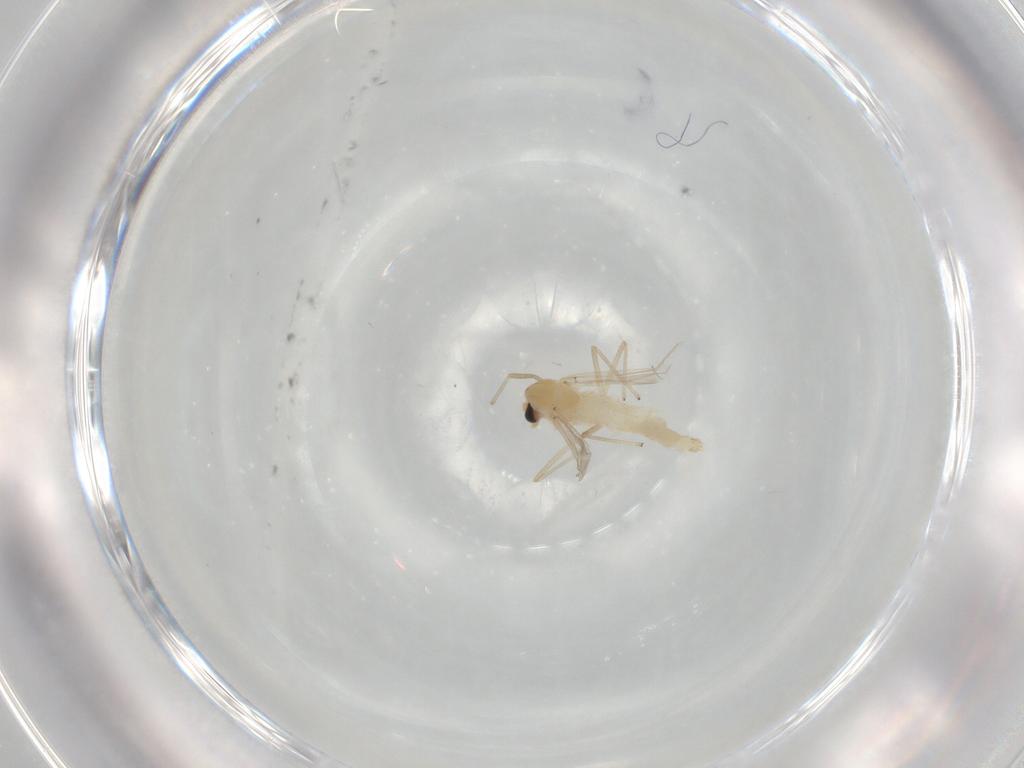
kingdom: Animalia
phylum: Arthropoda
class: Insecta
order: Diptera
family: Chironomidae
